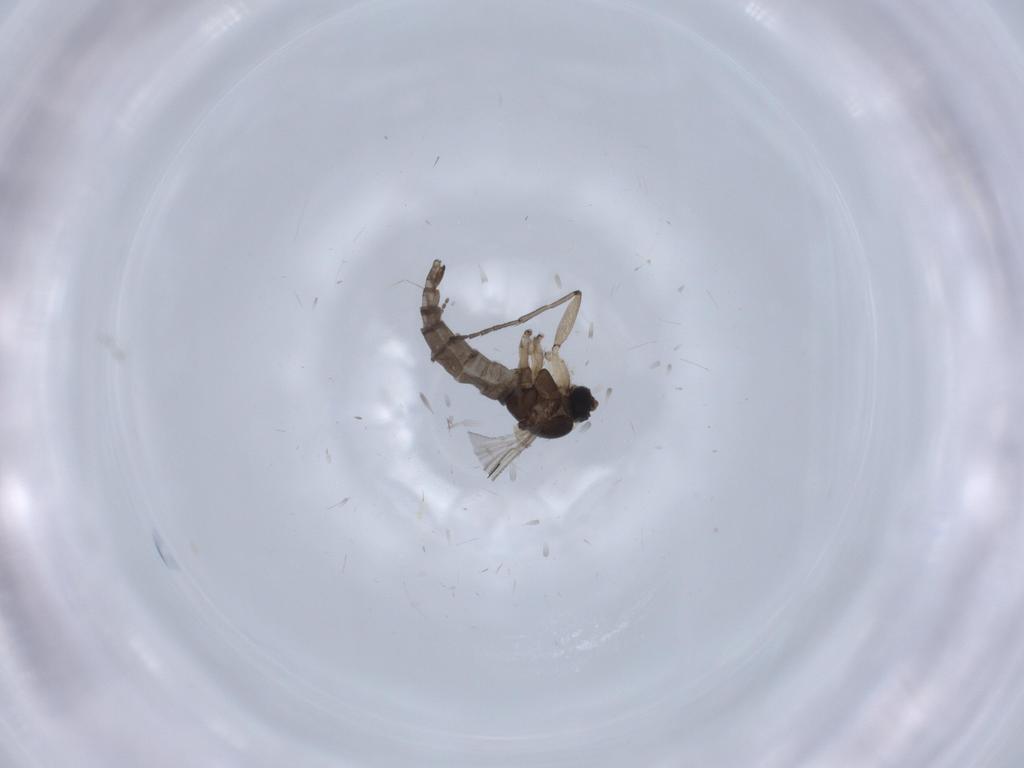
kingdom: Animalia
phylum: Arthropoda
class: Insecta
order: Diptera
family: Sciaridae
